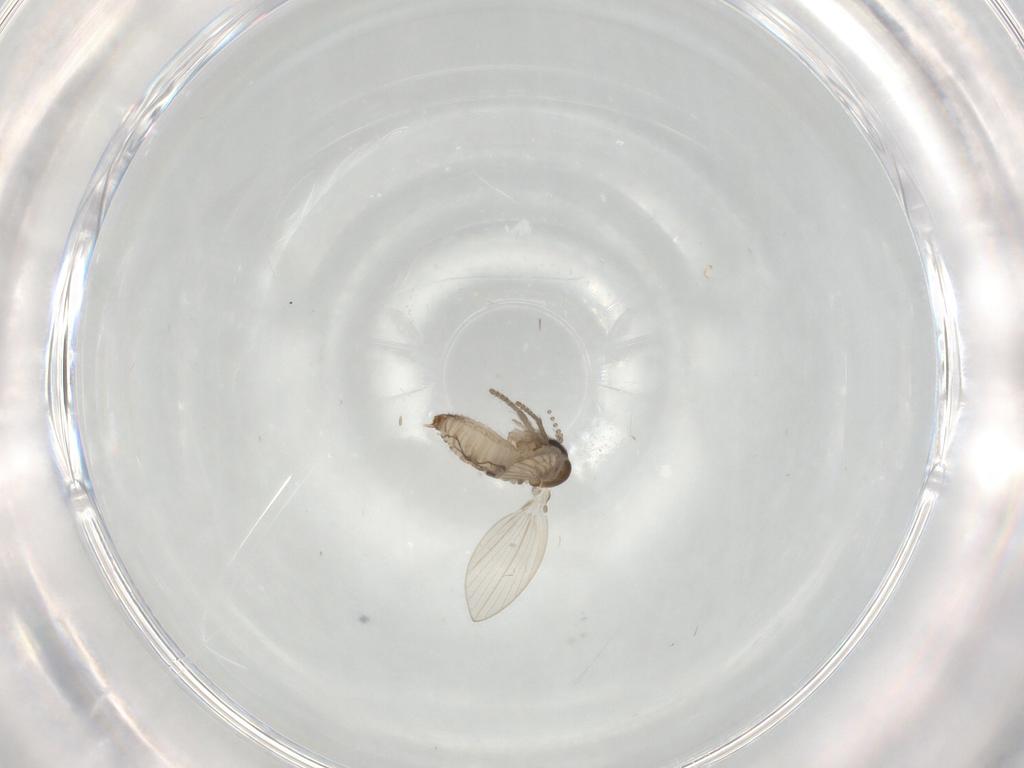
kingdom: Animalia
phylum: Arthropoda
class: Insecta
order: Diptera
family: Psychodidae
